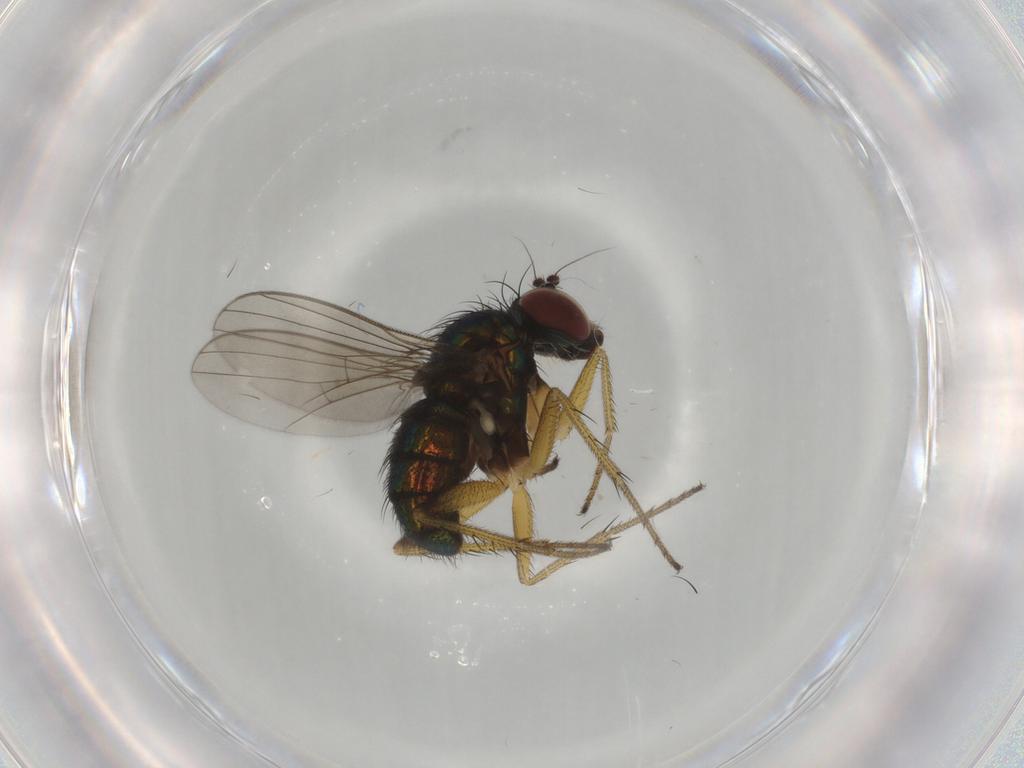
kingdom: Animalia
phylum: Arthropoda
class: Insecta
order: Diptera
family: Dolichopodidae
